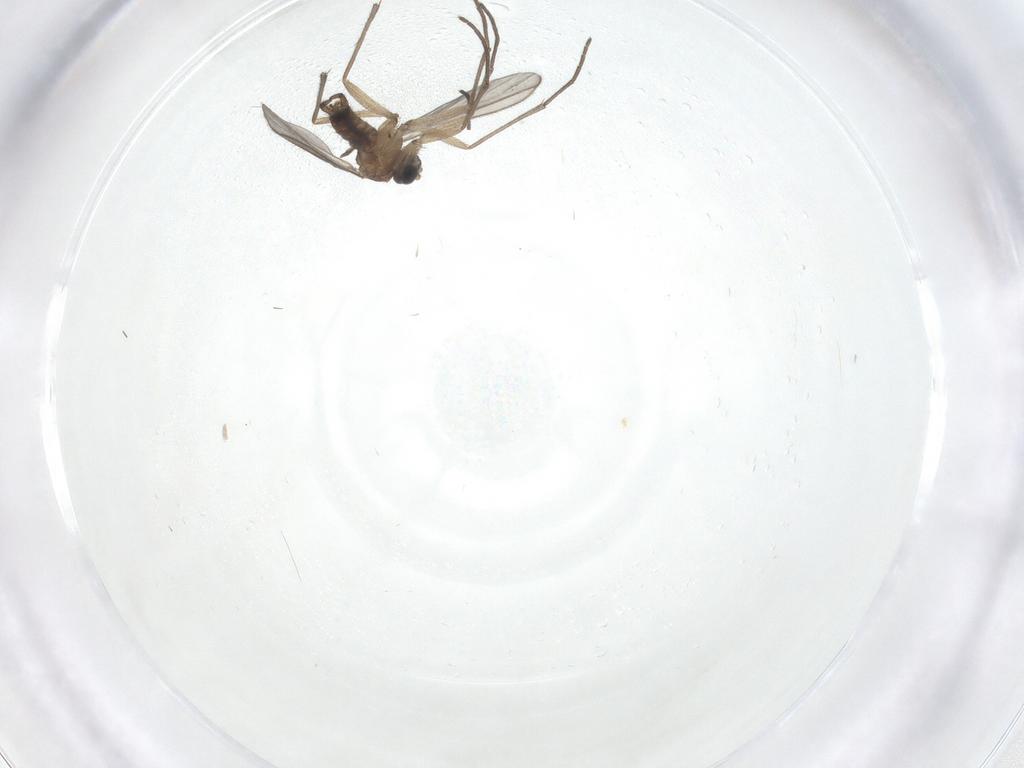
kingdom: Animalia
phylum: Arthropoda
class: Insecta
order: Diptera
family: Sciaridae
